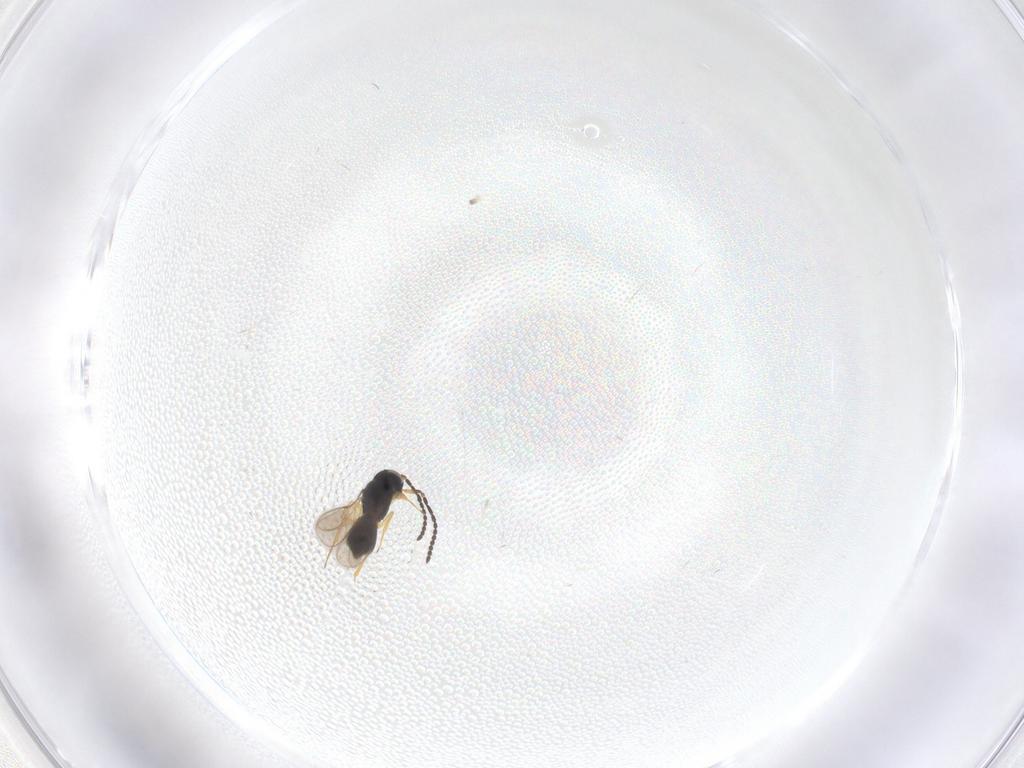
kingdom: Animalia
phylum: Arthropoda
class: Insecta
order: Hymenoptera
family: Scelionidae
